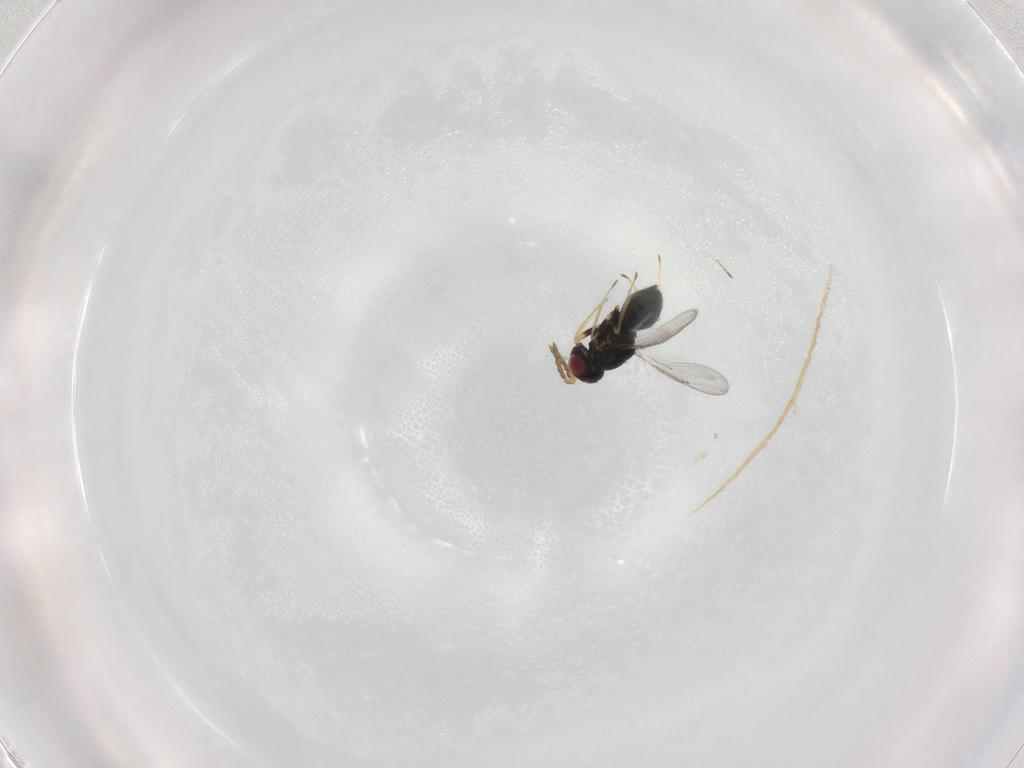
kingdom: Animalia
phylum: Arthropoda
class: Insecta
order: Hymenoptera
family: Eulophidae
